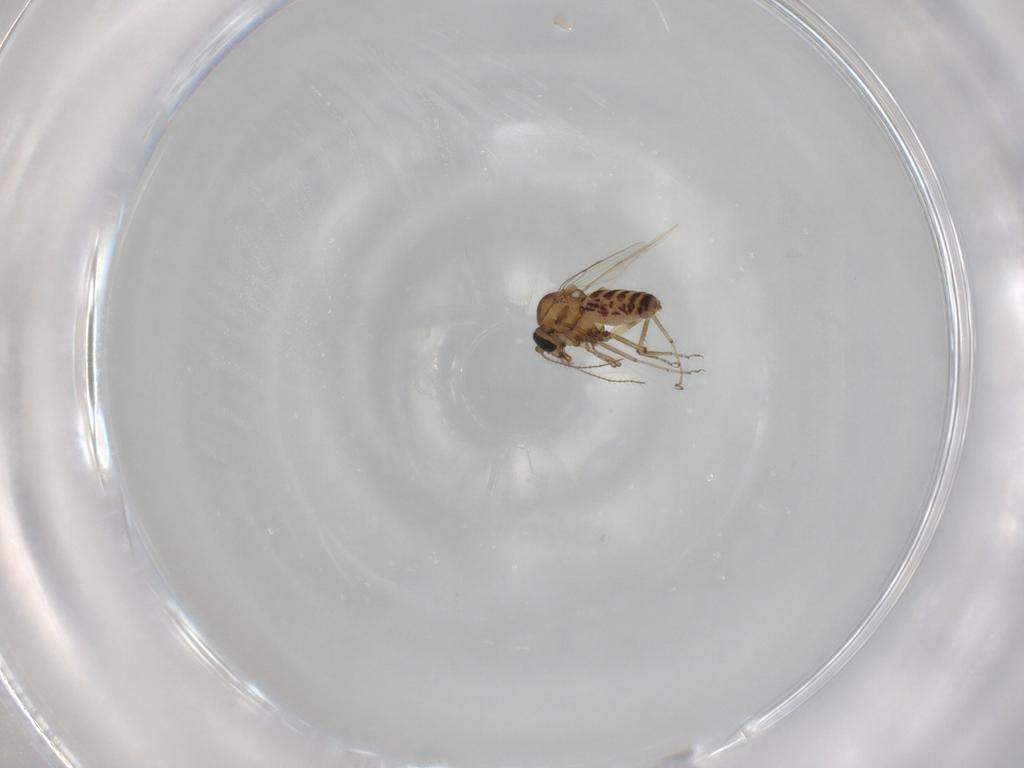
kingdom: Animalia
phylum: Arthropoda
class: Insecta
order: Diptera
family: Ceratopogonidae
